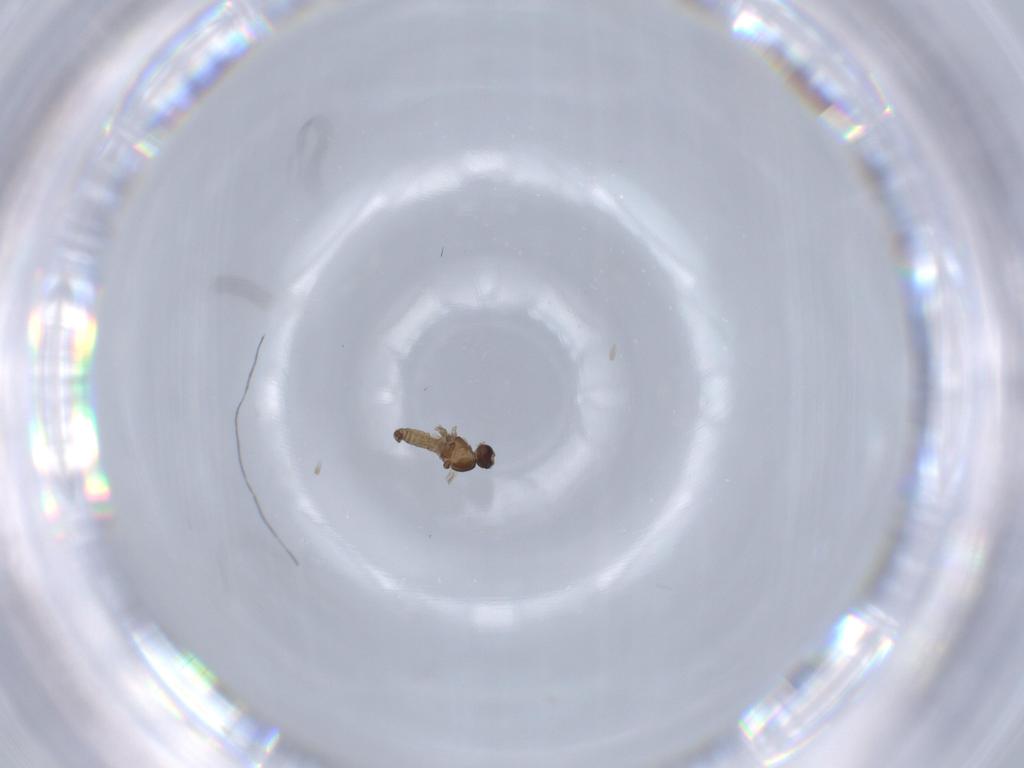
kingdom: Animalia
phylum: Arthropoda
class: Insecta
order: Diptera
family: Cecidomyiidae
